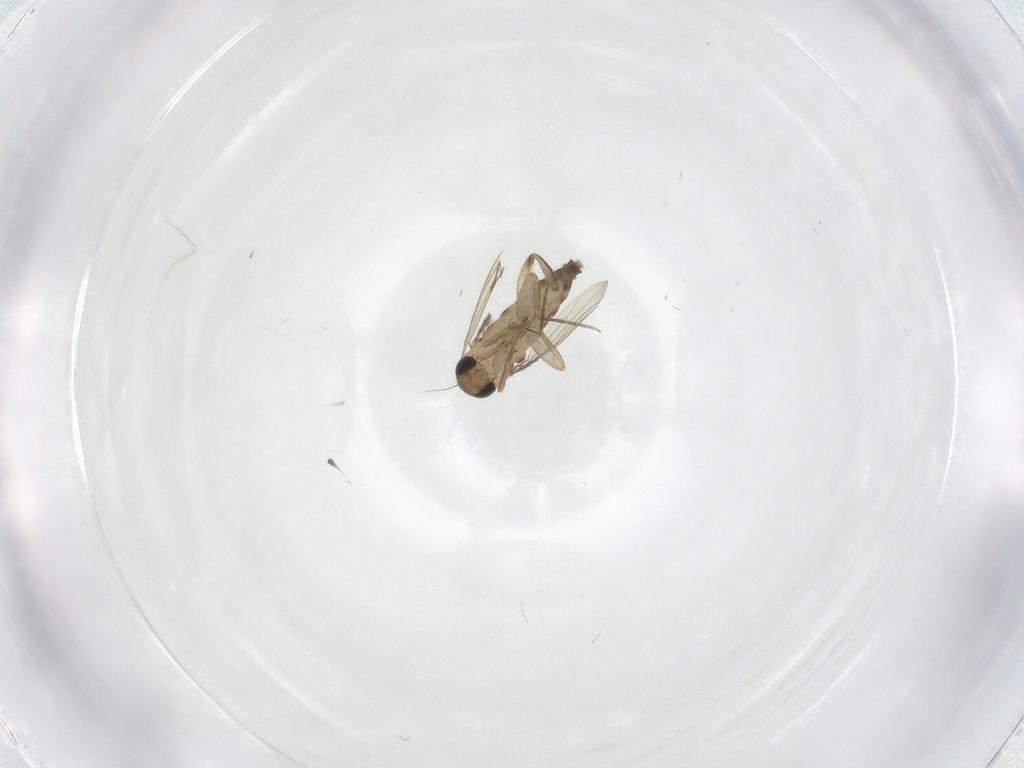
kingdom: Animalia
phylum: Arthropoda
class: Insecta
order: Diptera
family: Phoridae
